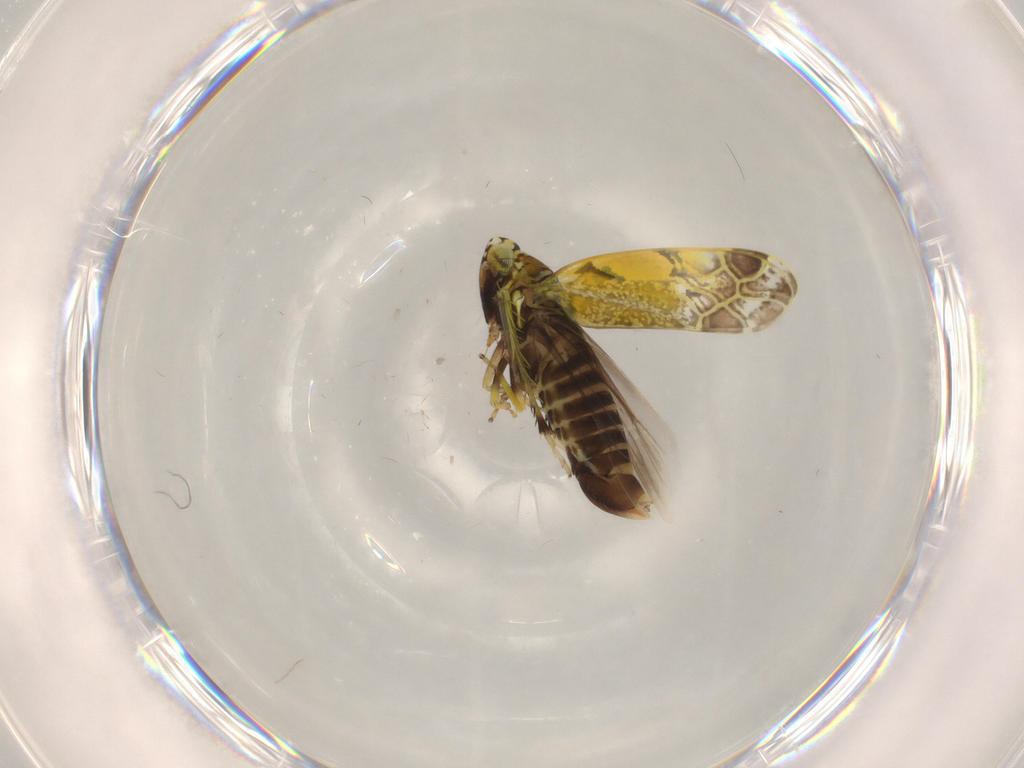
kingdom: Animalia
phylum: Arthropoda
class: Insecta
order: Hemiptera
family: Cicadellidae
